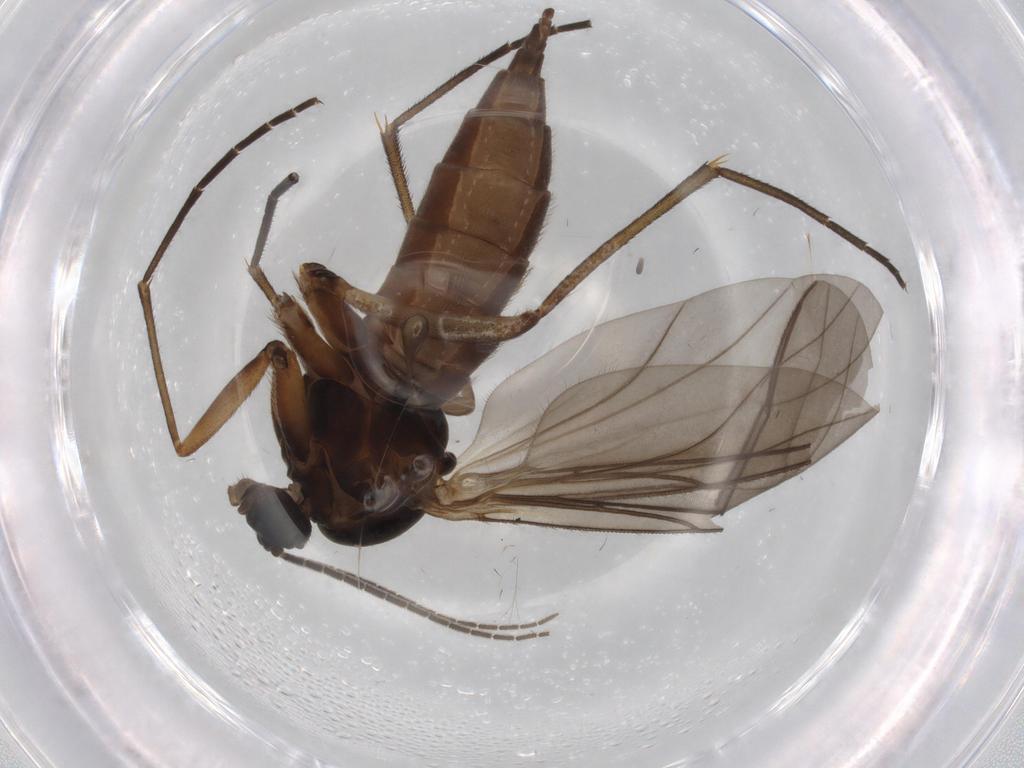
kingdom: Animalia
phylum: Arthropoda
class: Insecta
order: Diptera
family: Sciaridae
